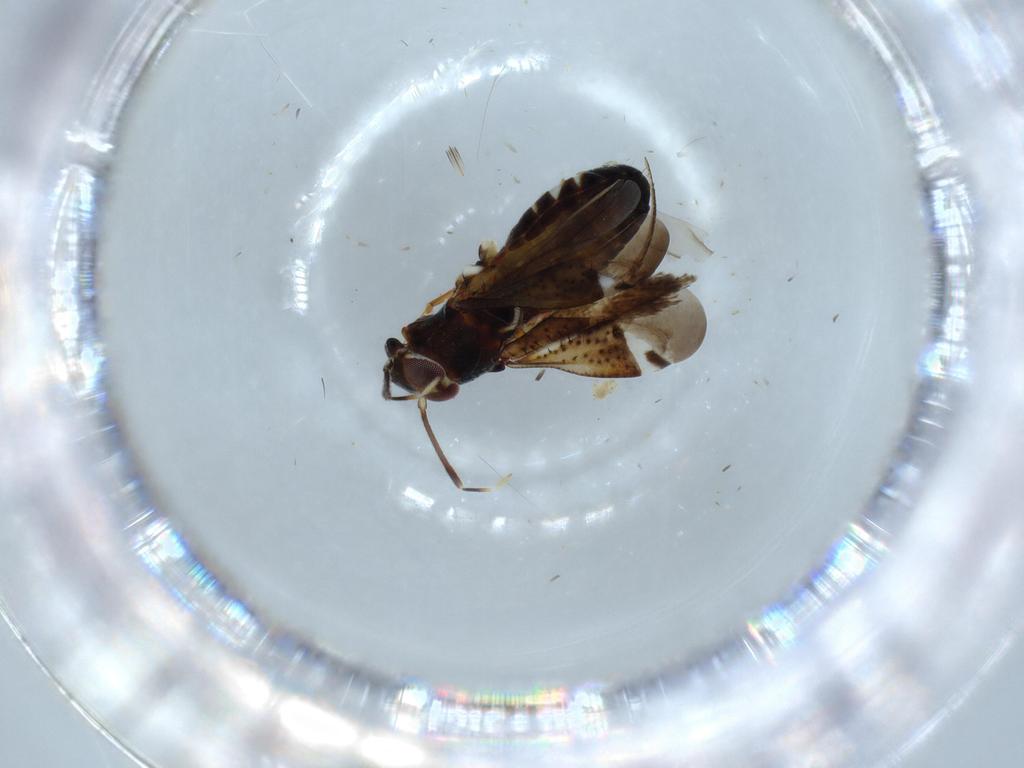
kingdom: Animalia
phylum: Arthropoda
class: Insecta
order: Hemiptera
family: Miridae
